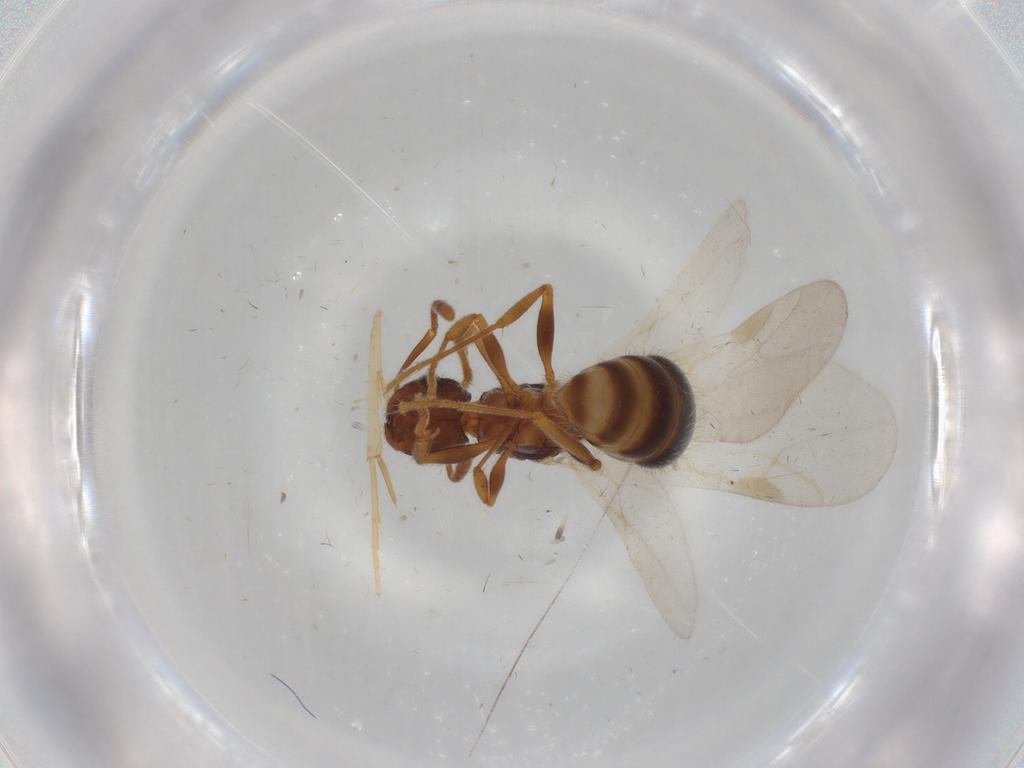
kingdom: Animalia
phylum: Arthropoda
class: Insecta
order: Hymenoptera
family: Formicidae
